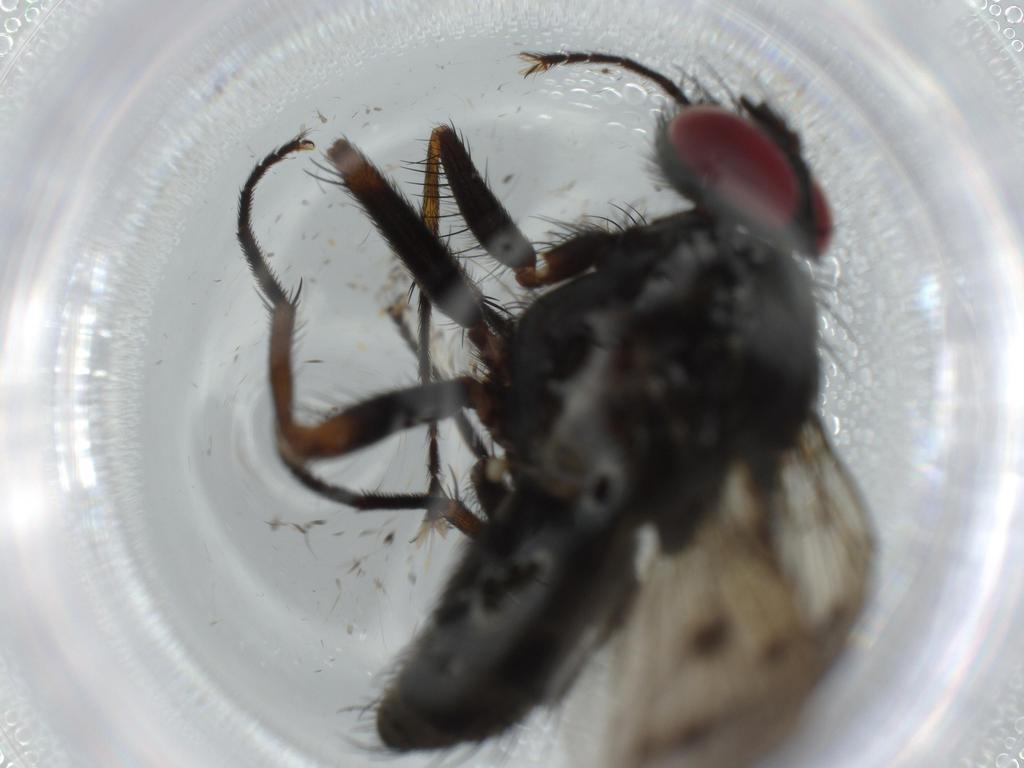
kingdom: Animalia
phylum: Arthropoda
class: Insecta
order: Diptera
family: Muscidae
